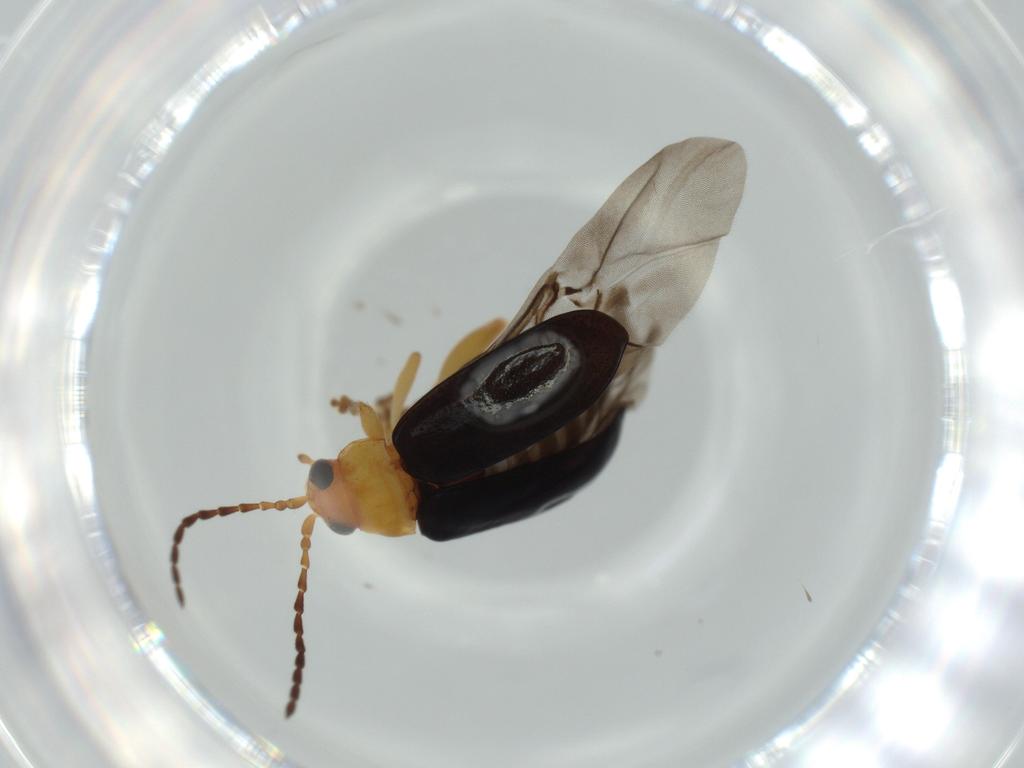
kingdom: Animalia
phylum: Arthropoda
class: Insecta
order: Coleoptera
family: Chrysomelidae
